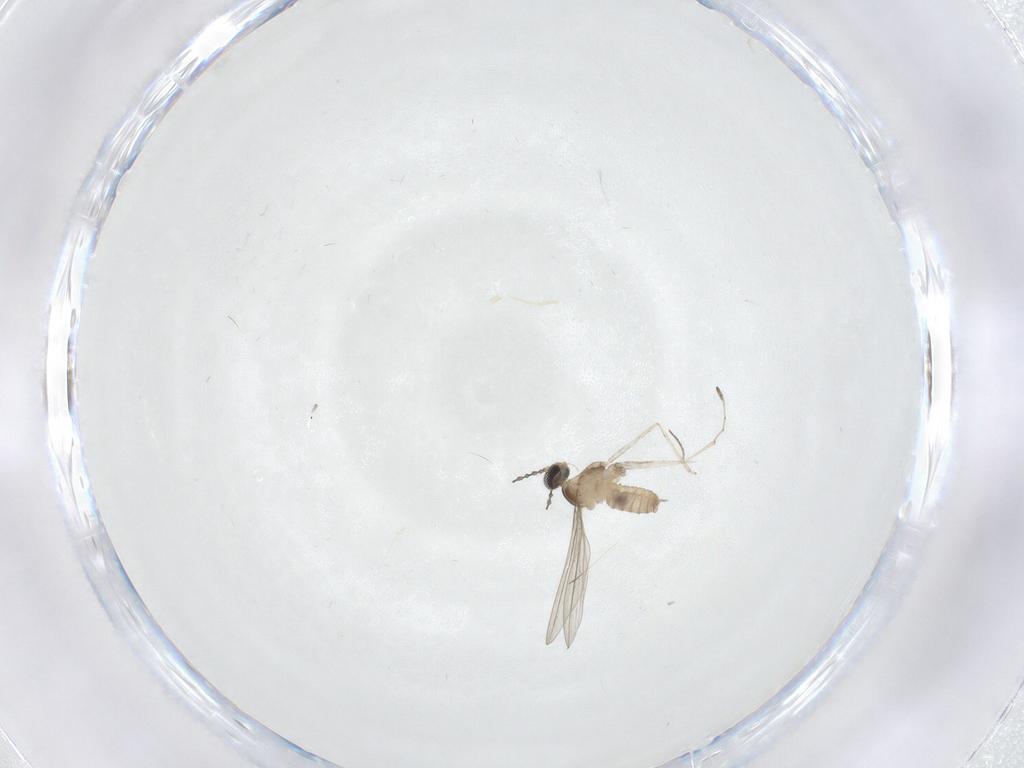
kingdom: Animalia
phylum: Arthropoda
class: Insecta
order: Diptera
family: Cecidomyiidae
